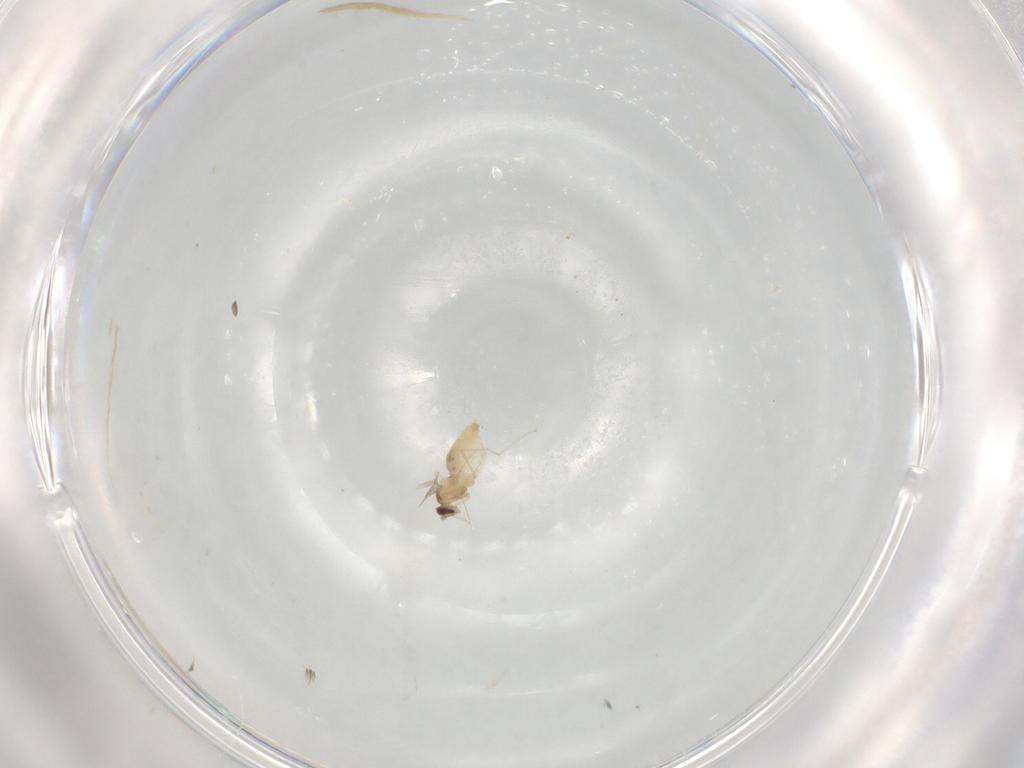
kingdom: Animalia
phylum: Arthropoda
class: Insecta
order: Diptera
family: Cecidomyiidae
